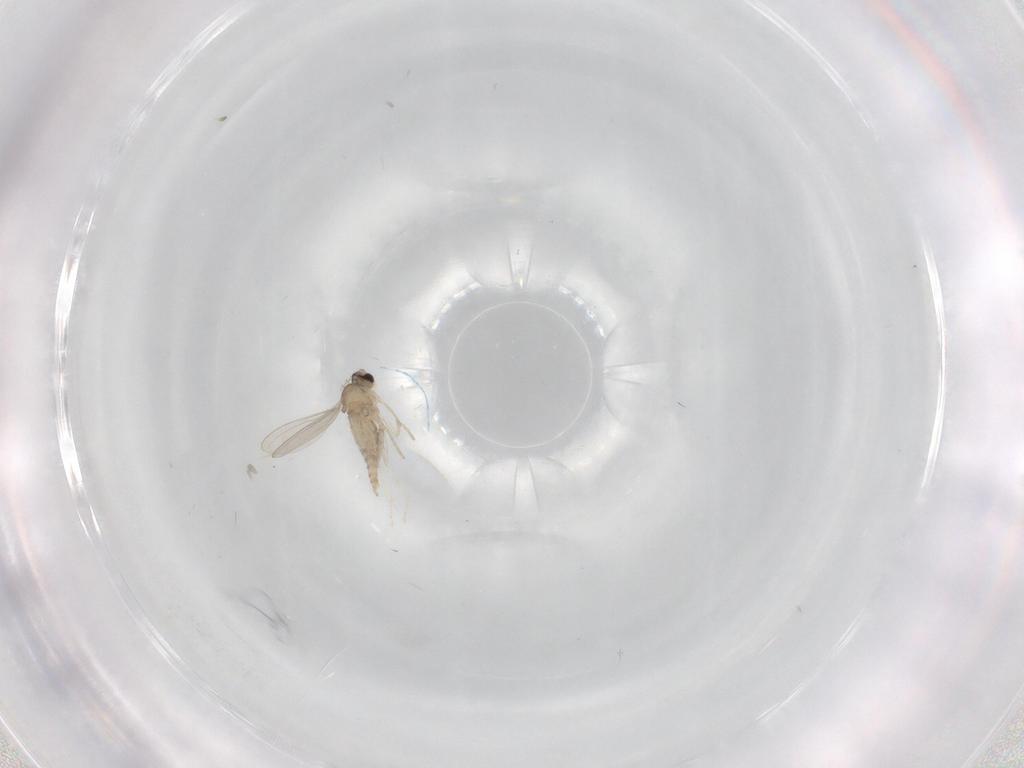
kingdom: Animalia
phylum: Arthropoda
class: Insecta
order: Diptera
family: Cecidomyiidae
